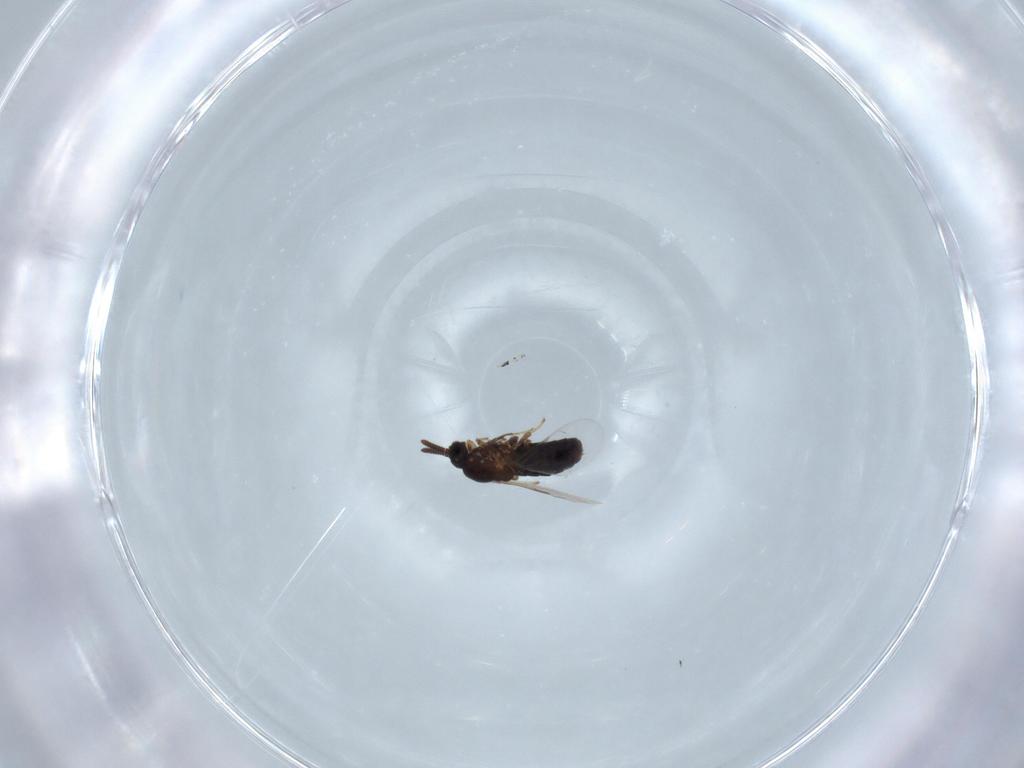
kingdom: Animalia
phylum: Arthropoda
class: Insecta
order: Diptera
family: Scatopsidae
